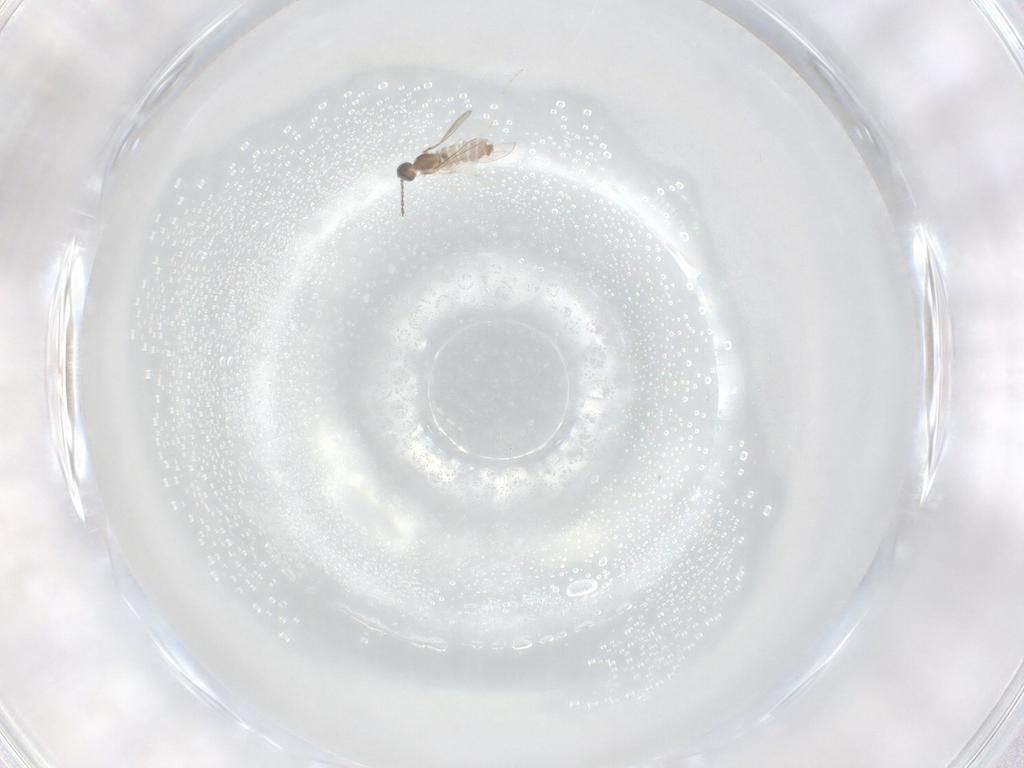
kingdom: Animalia
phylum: Arthropoda
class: Insecta
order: Diptera
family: Cecidomyiidae
